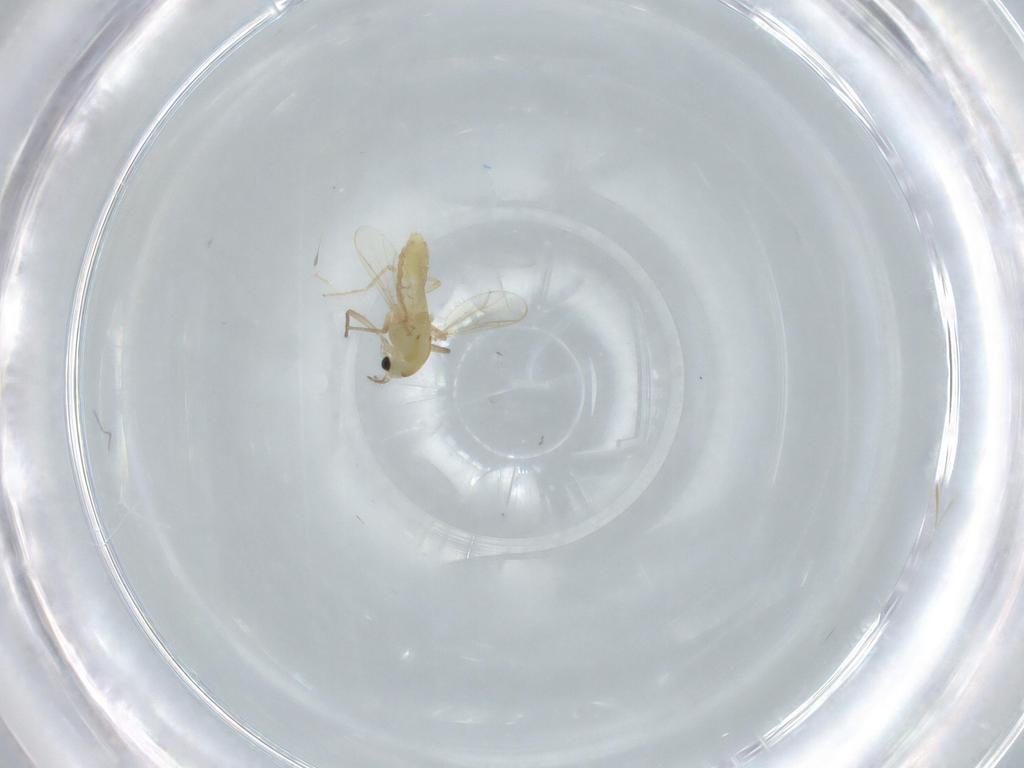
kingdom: Animalia
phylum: Arthropoda
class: Insecta
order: Diptera
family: Chironomidae
